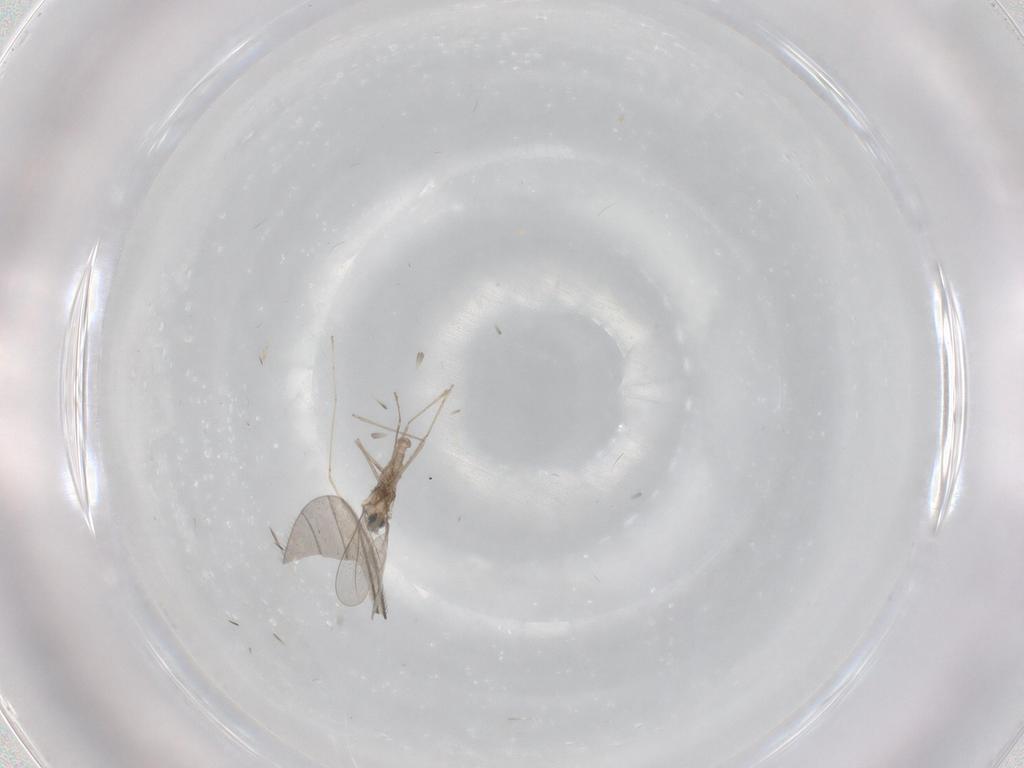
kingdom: Animalia
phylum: Arthropoda
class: Insecta
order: Diptera
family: Cecidomyiidae
